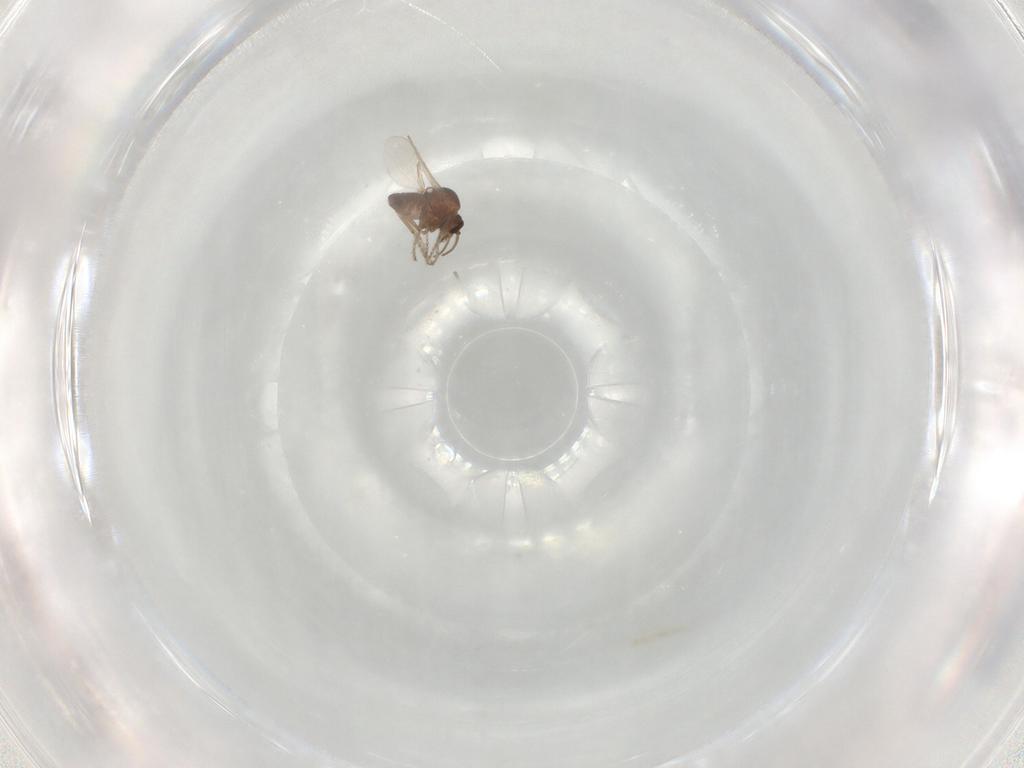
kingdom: Animalia
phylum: Arthropoda
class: Insecta
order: Diptera
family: Ceratopogonidae
